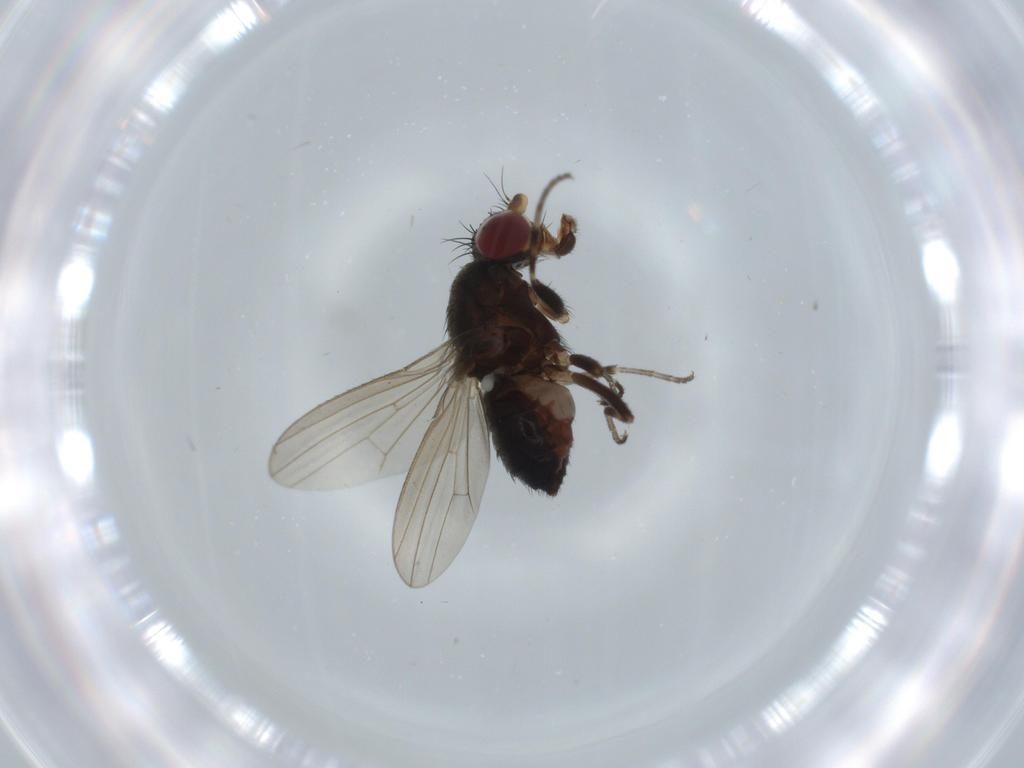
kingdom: Animalia
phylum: Arthropoda
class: Insecta
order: Diptera
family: Heleomyzidae
